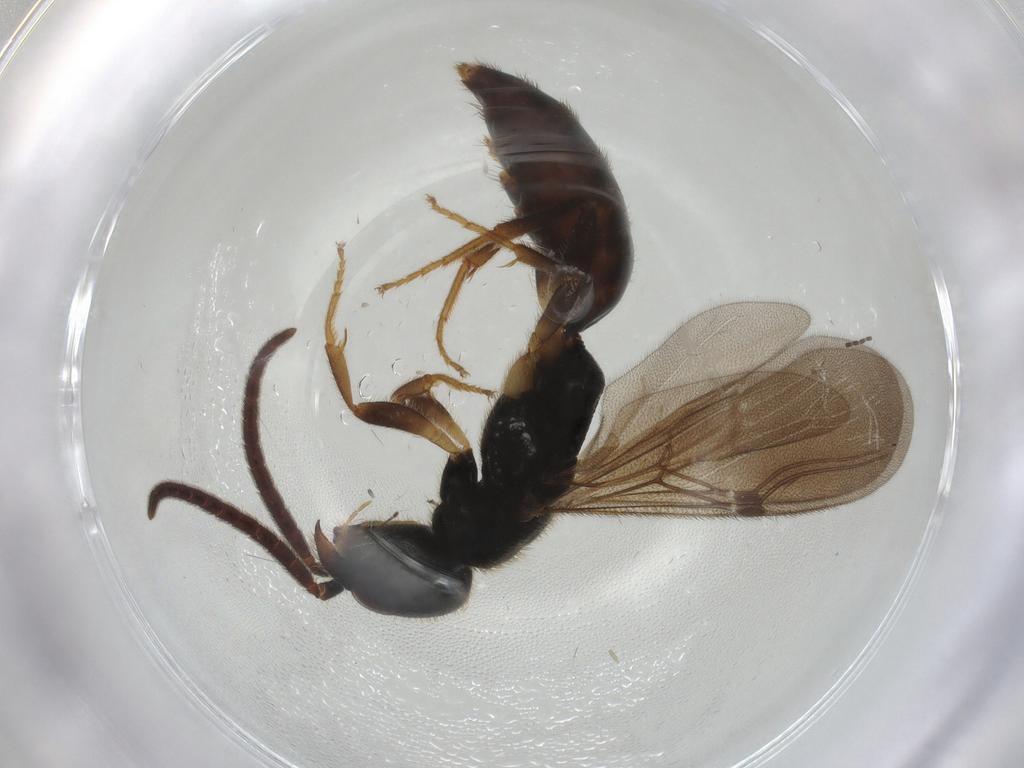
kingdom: Animalia
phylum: Arthropoda
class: Insecta
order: Hymenoptera
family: Bethylidae
